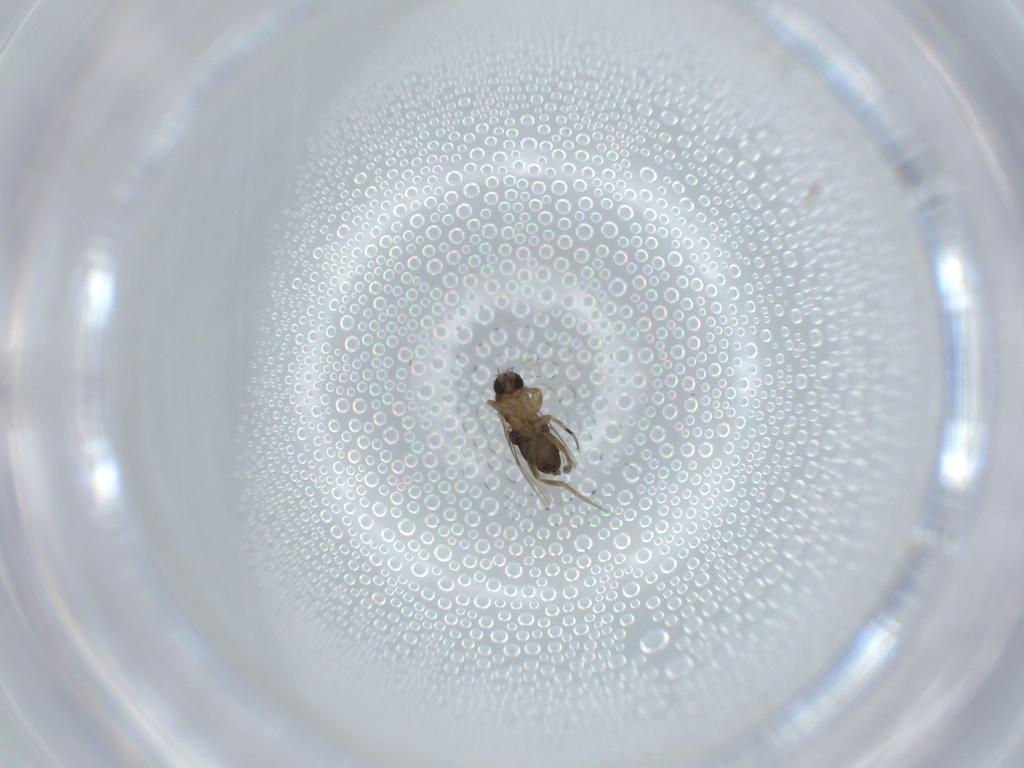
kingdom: Animalia
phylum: Arthropoda
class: Insecta
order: Diptera
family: Phoridae
